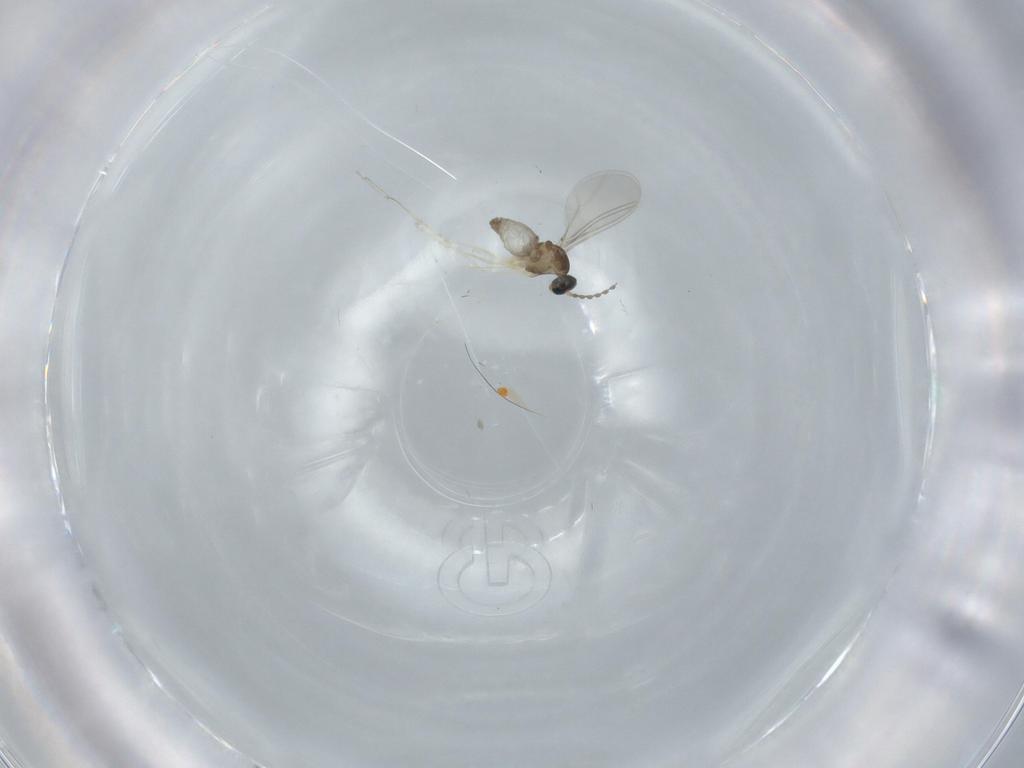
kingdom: Animalia
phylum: Arthropoda
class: Insecta
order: Diptera
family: Cecidomyiidae
